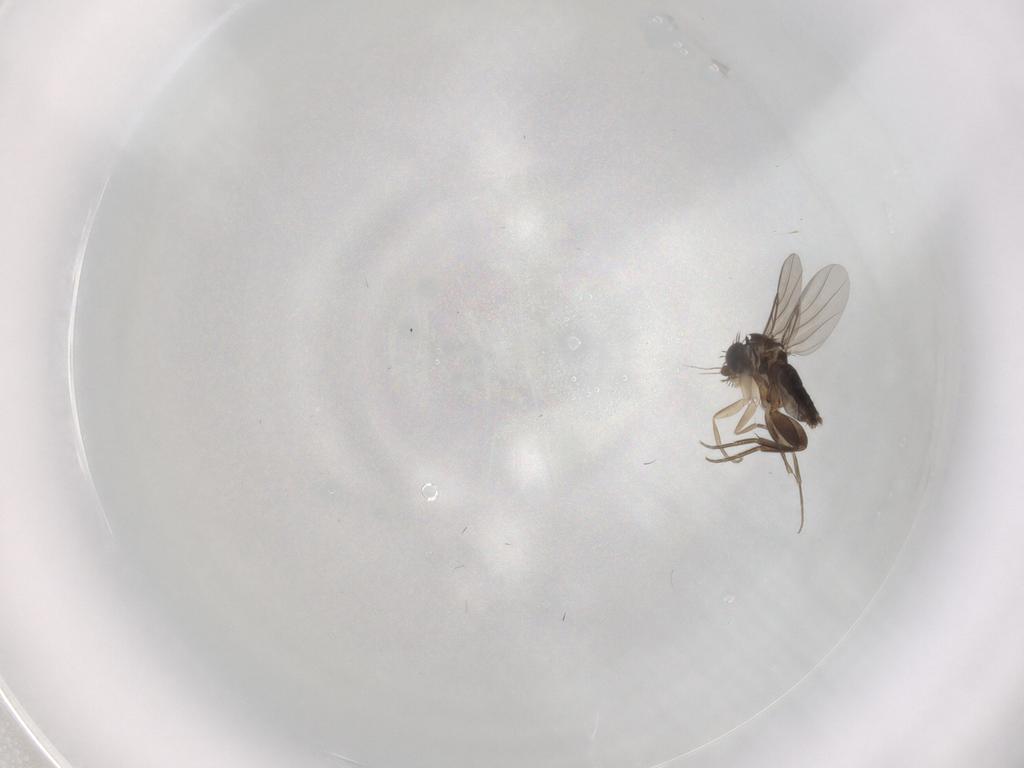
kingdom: Animalia
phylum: Arthropoda
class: Insecta
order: Diptera
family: Phoridae
